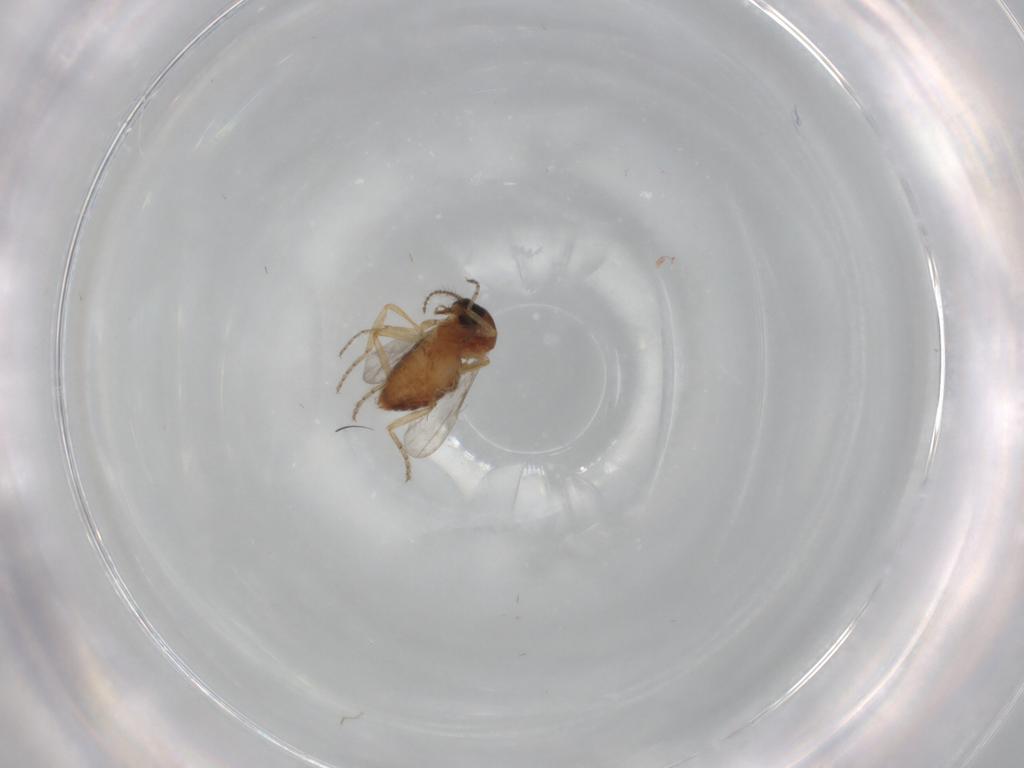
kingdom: Animalia
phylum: Arthropoda
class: Insecta
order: Diptera
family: Ceratopogonidae
